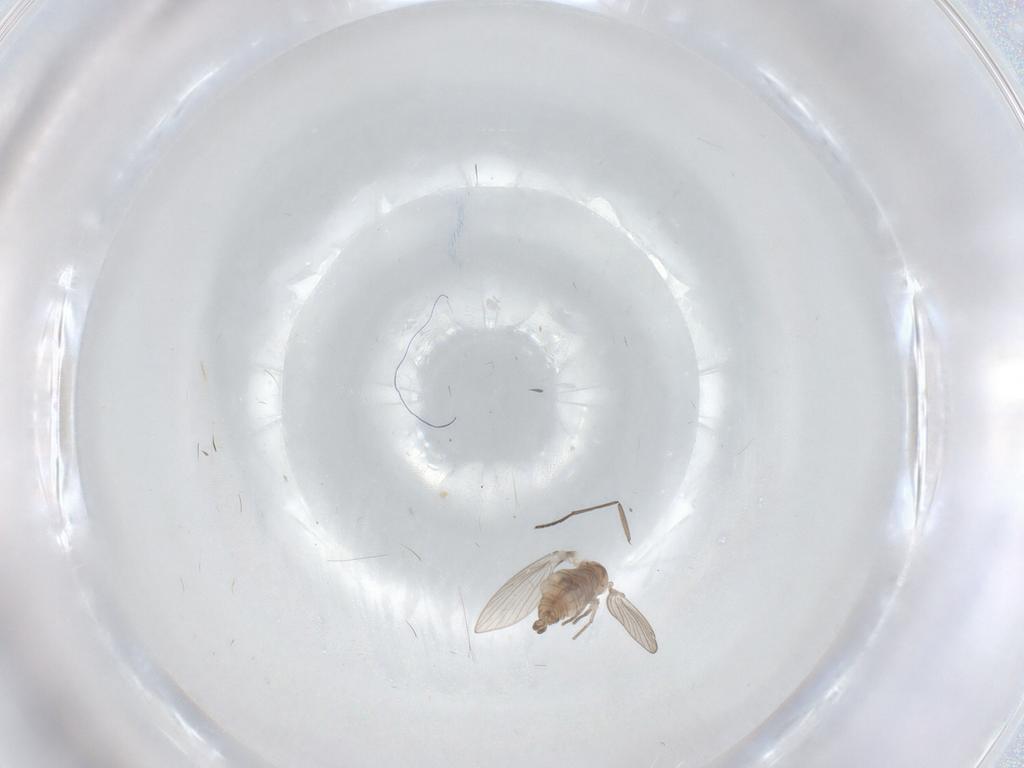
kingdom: Animalia
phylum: Arthropoda
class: Insecta
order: Diptera
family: Psychodidae
